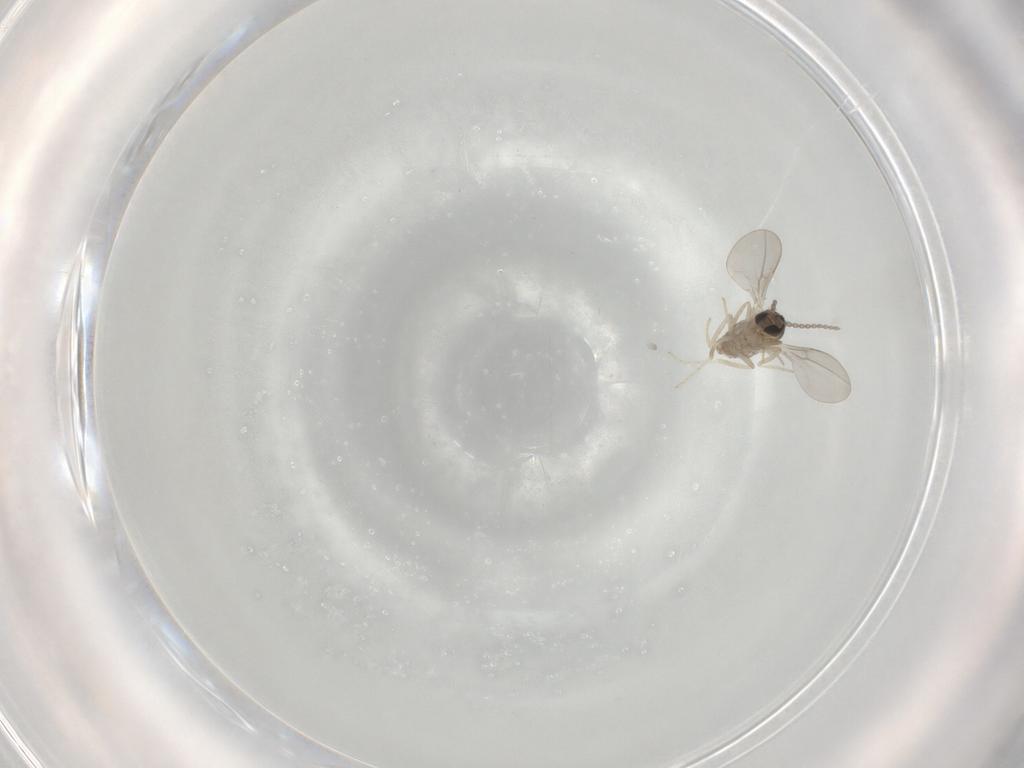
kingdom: Animalia
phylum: Arthropoda
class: Insecta
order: Diptera
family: Cecidomyiidae
